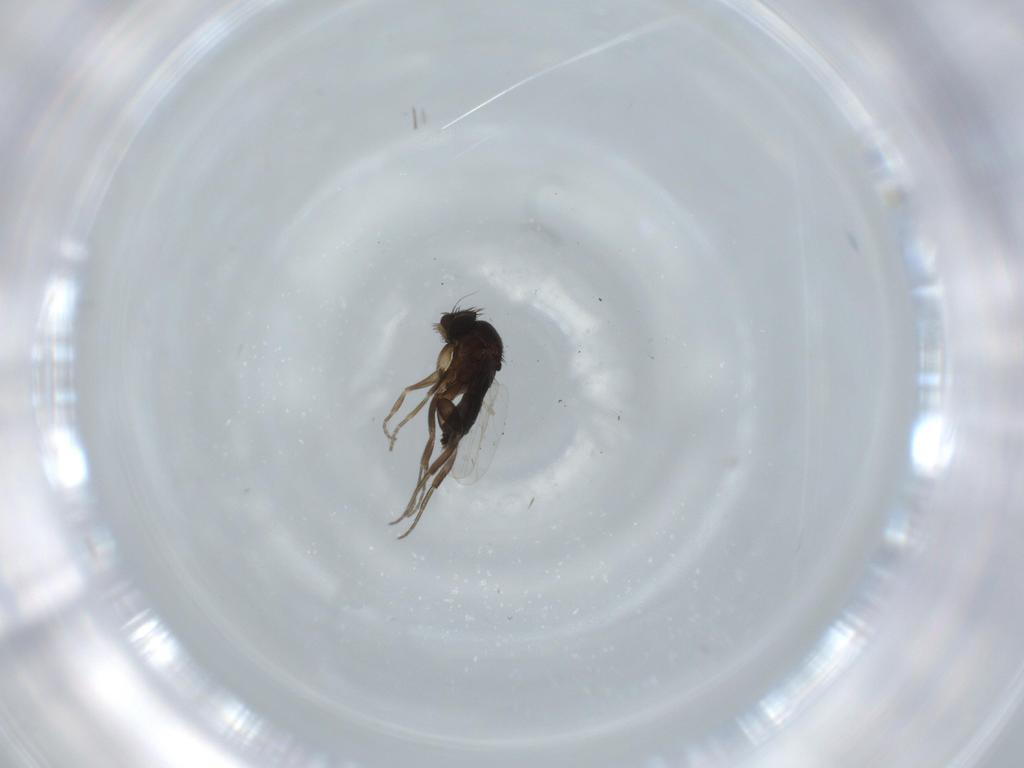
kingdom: Animalia
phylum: Arthropoda
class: Insecta
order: Diptera
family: Phoridae
